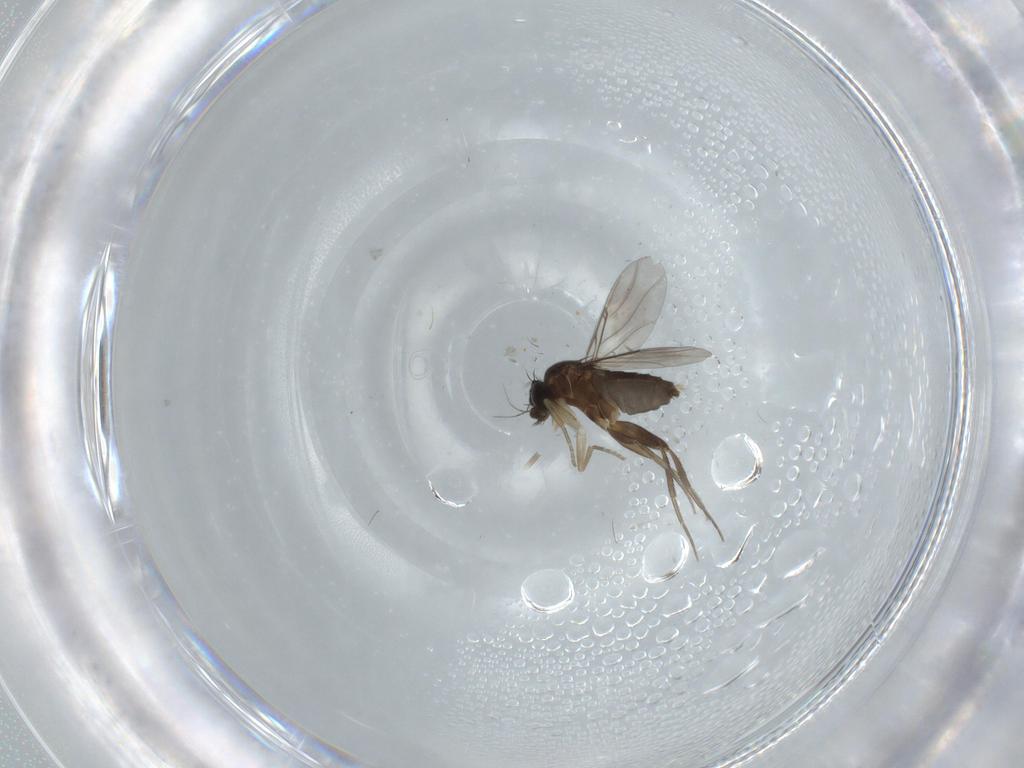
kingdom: Animalia
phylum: Arthropoda
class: Insecta
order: Diptera
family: Phoridae
